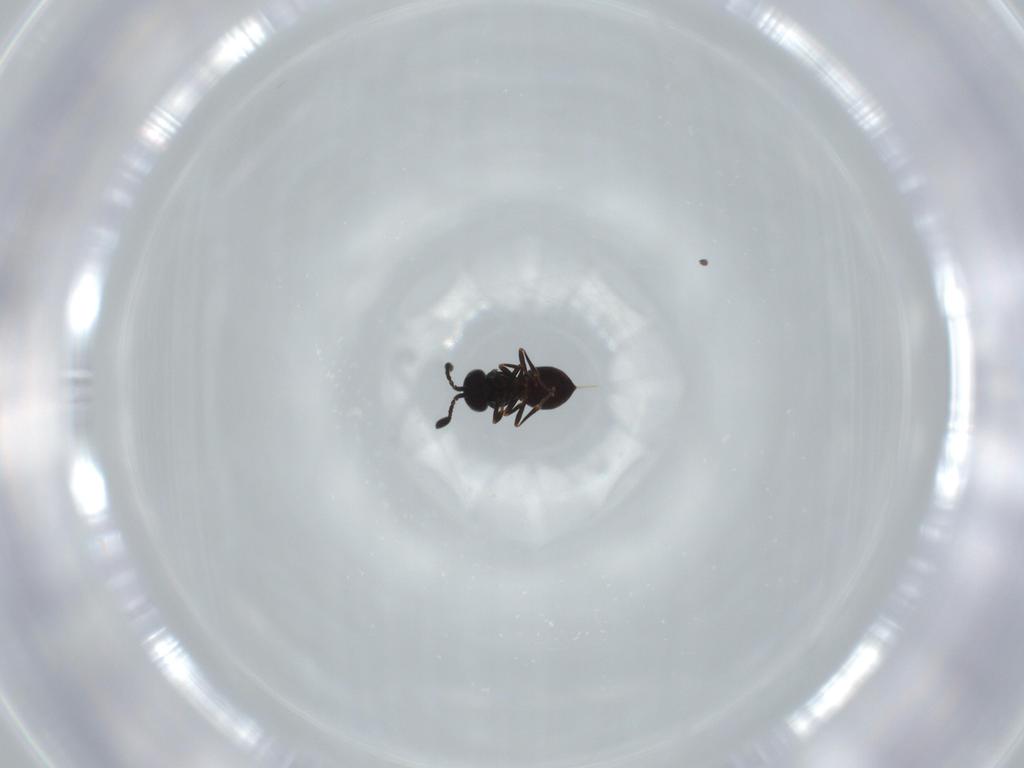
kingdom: Animalia
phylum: Arthropoda
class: Insecta
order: Hymenoptera
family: Scelionidae
